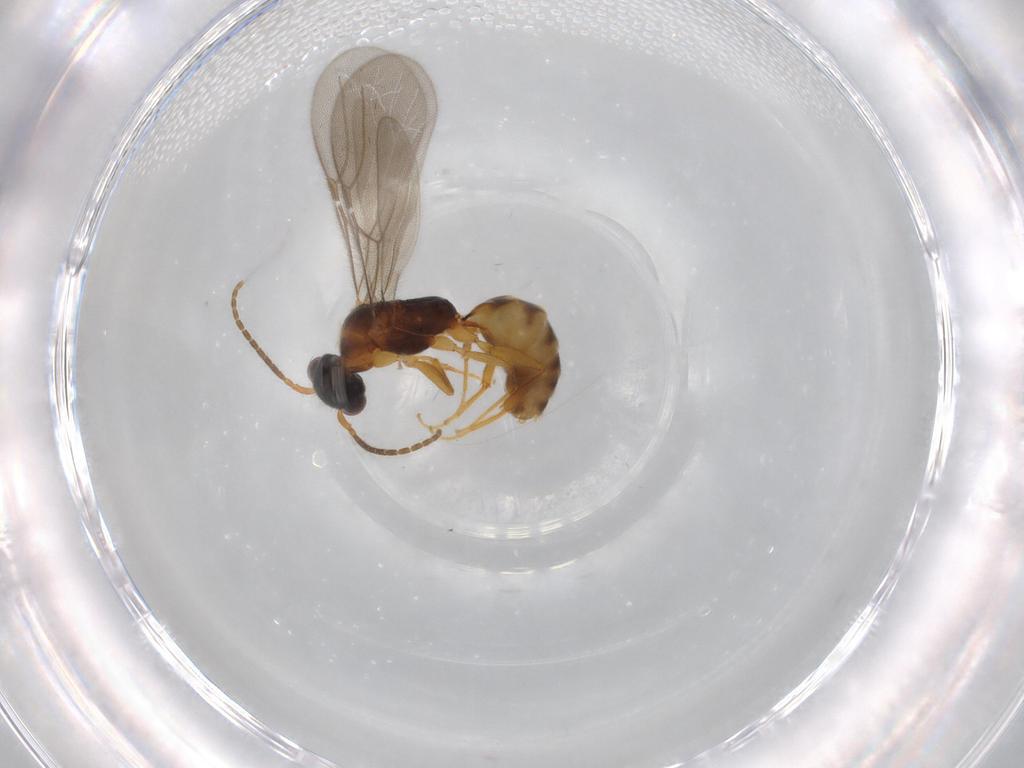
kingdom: Animalia
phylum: Arthropoda
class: Insecta
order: Hymenoptera
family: Bethylidae
